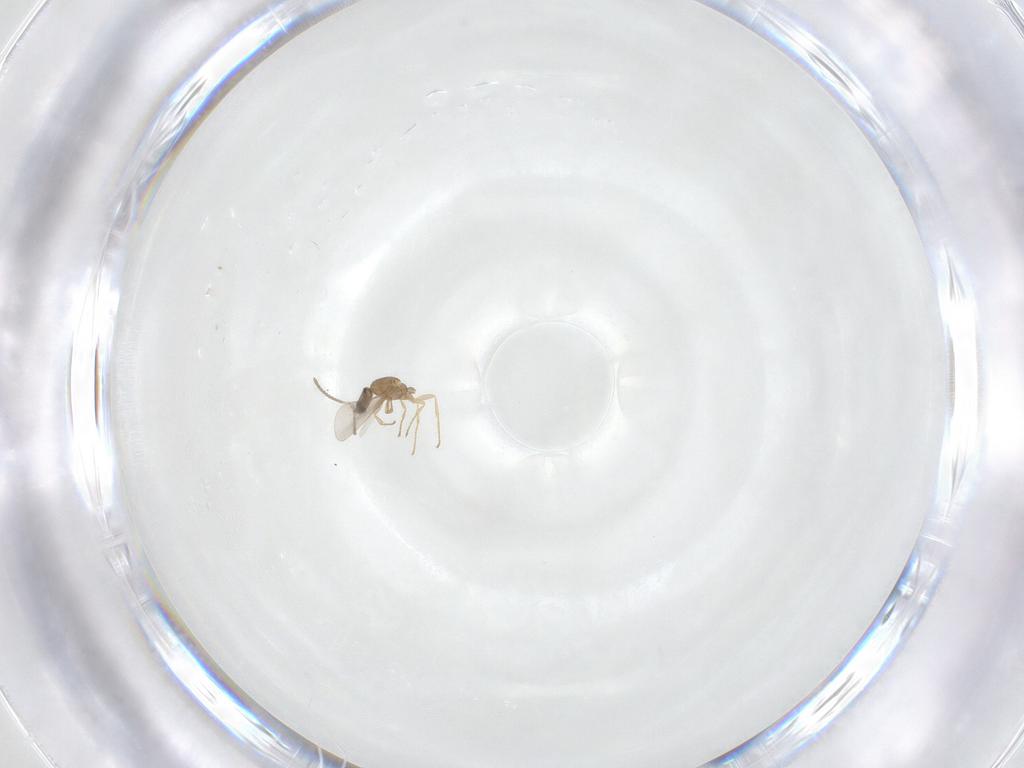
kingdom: Animalia
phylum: Arthropoda
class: Insecta
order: Hymenoptera
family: Formicidae
